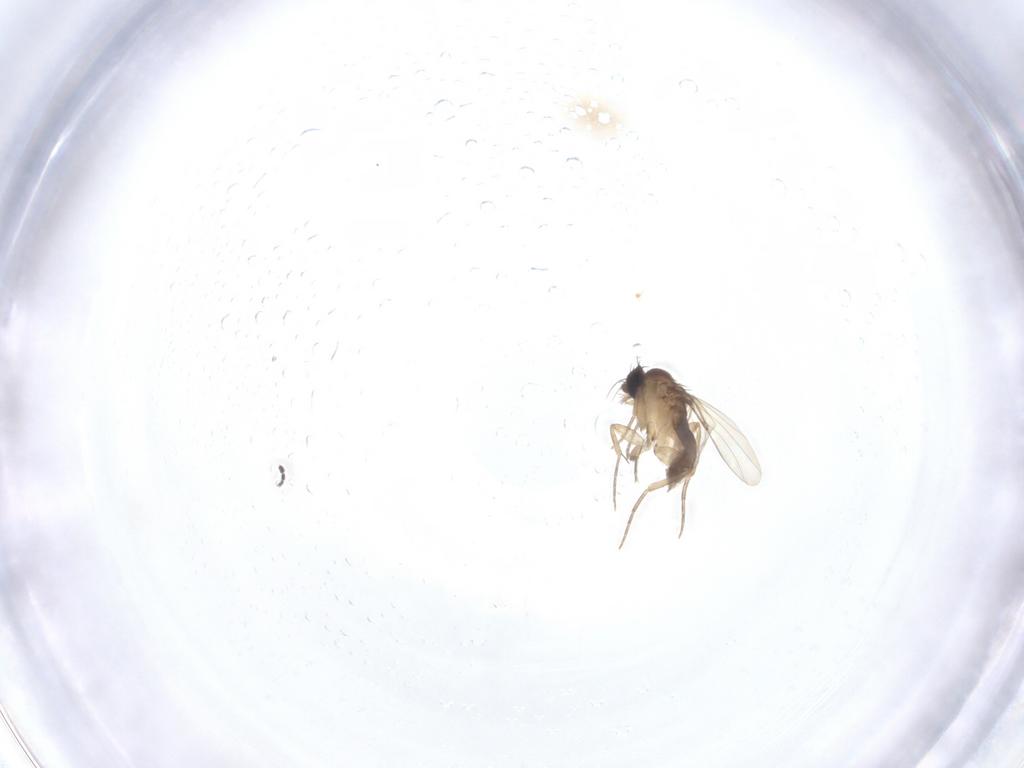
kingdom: Animalia
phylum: Arthropoda
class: Insecta
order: Diptera
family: Phoridae
